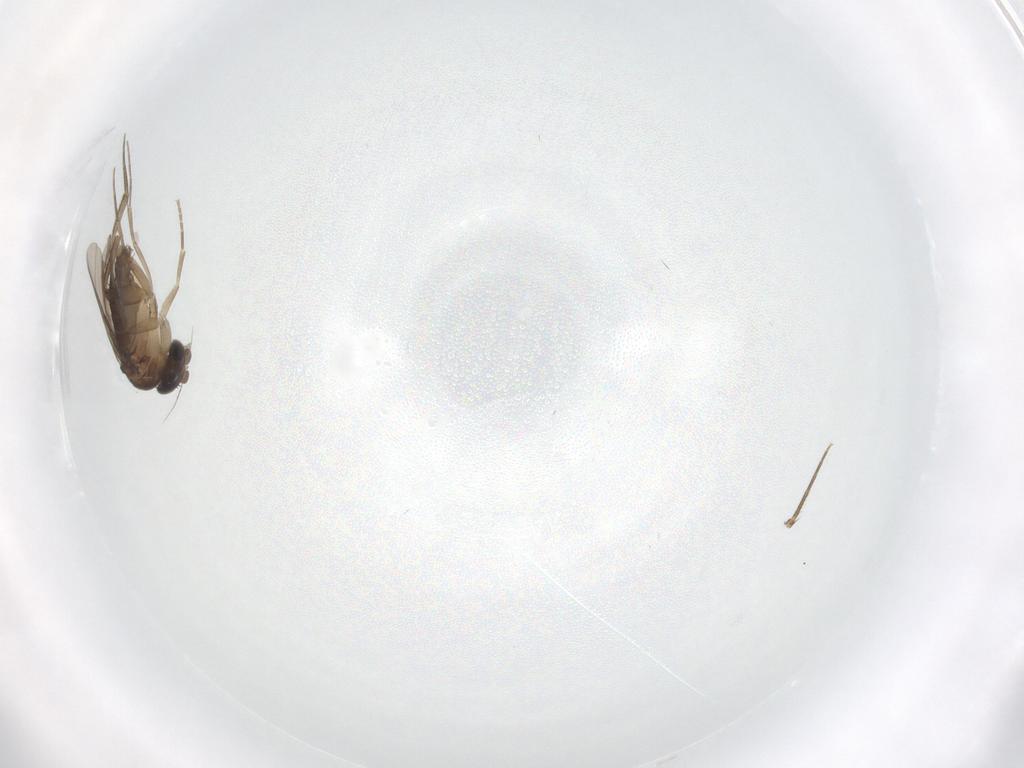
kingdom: Animalia
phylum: Arthropoda
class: Insecta
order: Diptera
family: Phoridae
